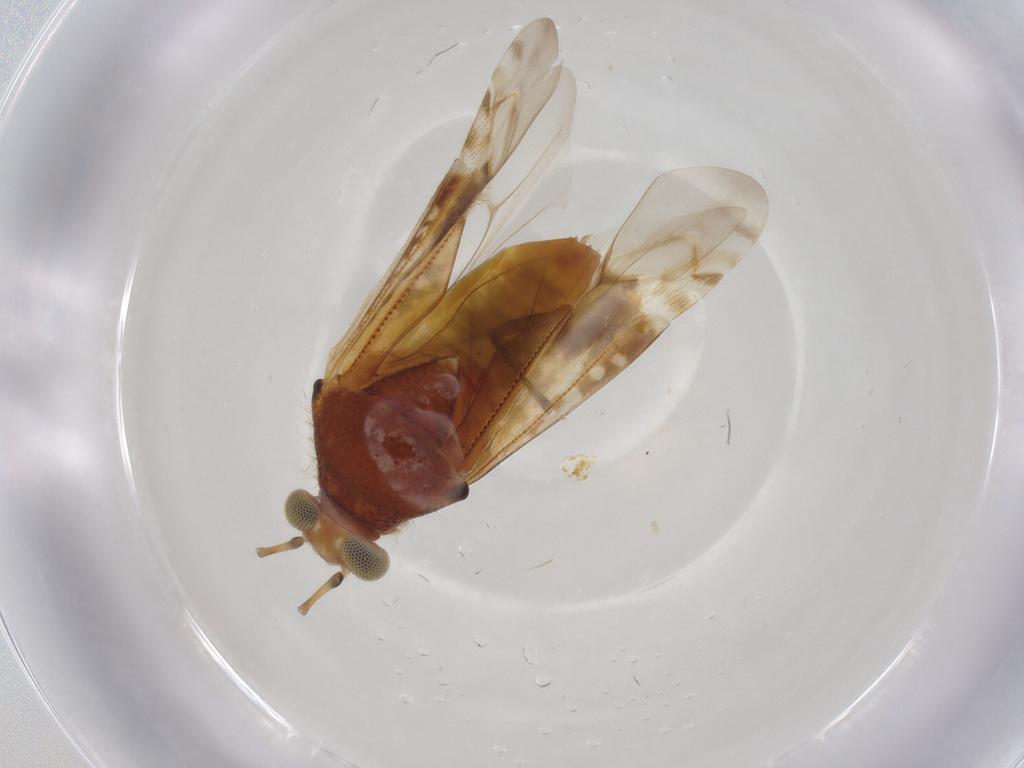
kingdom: Animalia
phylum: Arthropoda
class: Insecta
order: Hemiptera
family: Miridae
